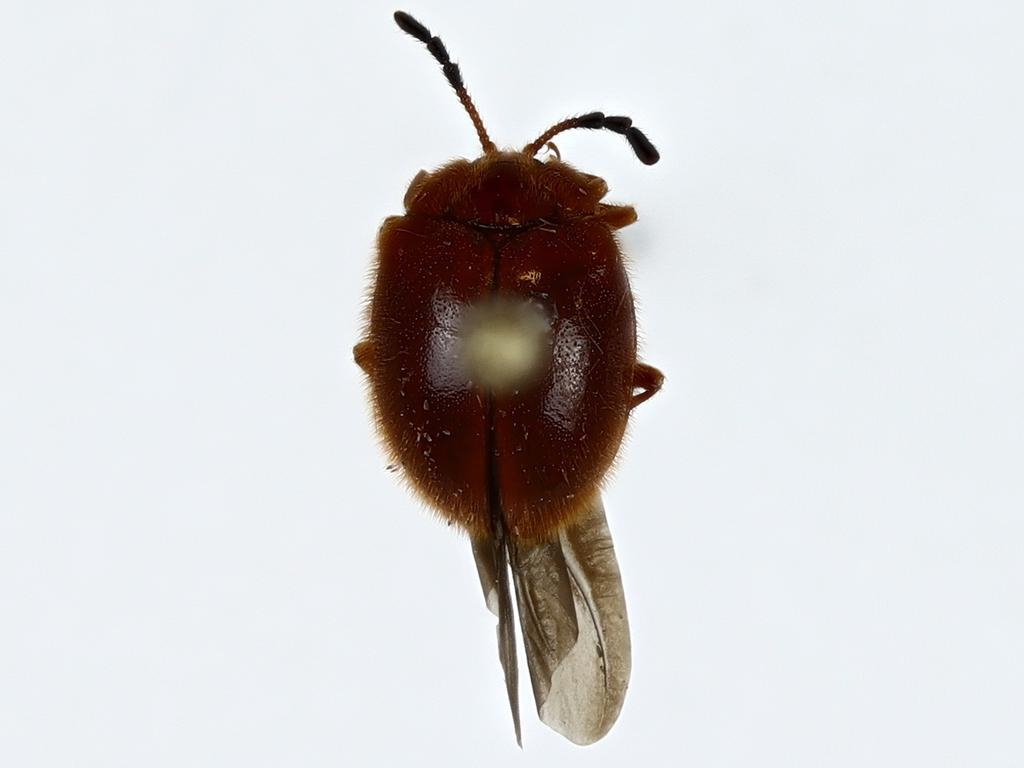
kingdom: Animalia
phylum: Arthropoda
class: Insecta
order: Coleoptera
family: Endomychidae
